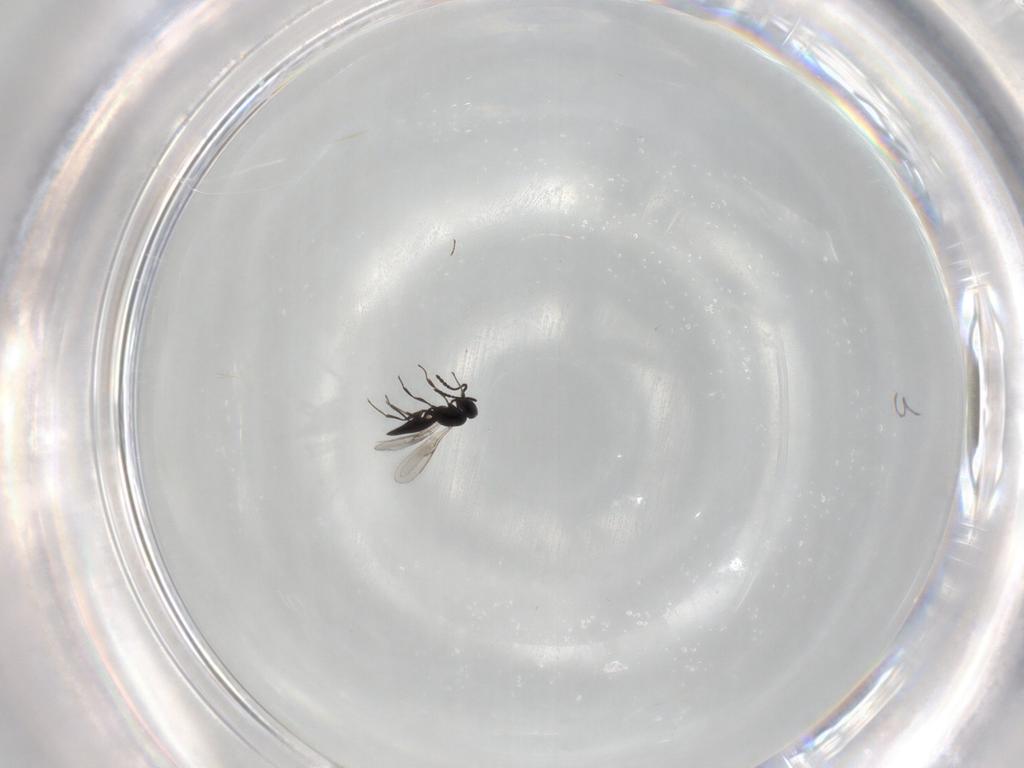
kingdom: Animalia
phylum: Arthropoda
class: Insecta
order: Hymenoptera
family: Scelionidae
